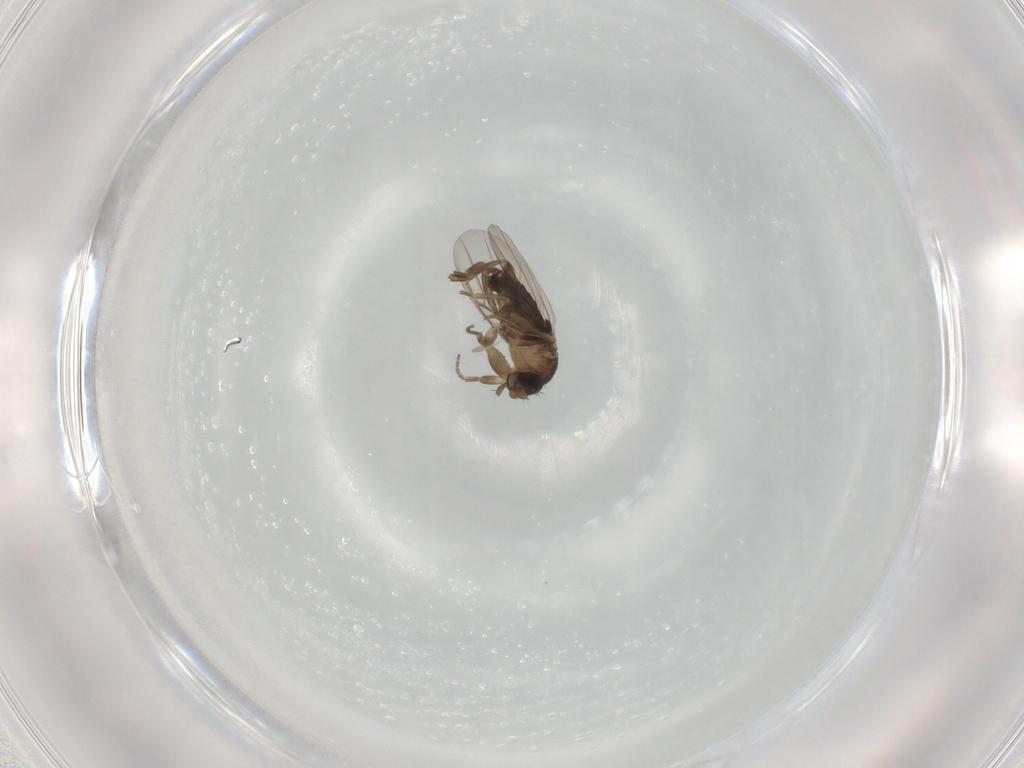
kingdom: Animalia
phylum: Arthropoda
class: Insecta
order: Diptera
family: Phoridae
